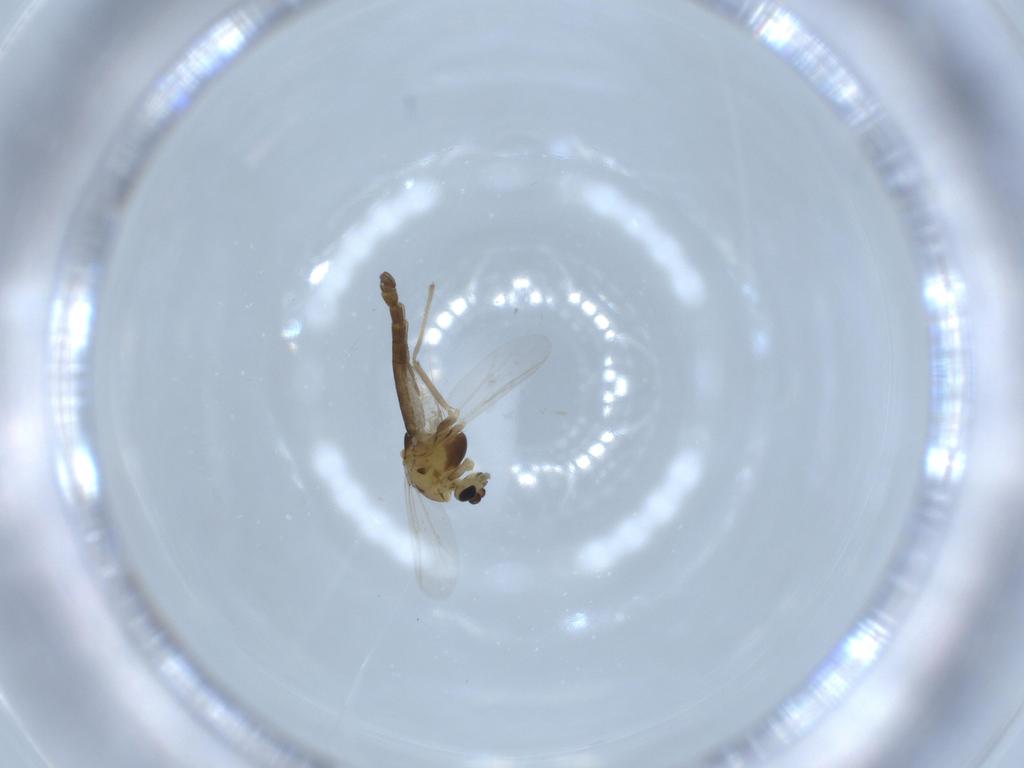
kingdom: Animalia
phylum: Arthropoda
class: Insecta
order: Diptera
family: Chironomidae
